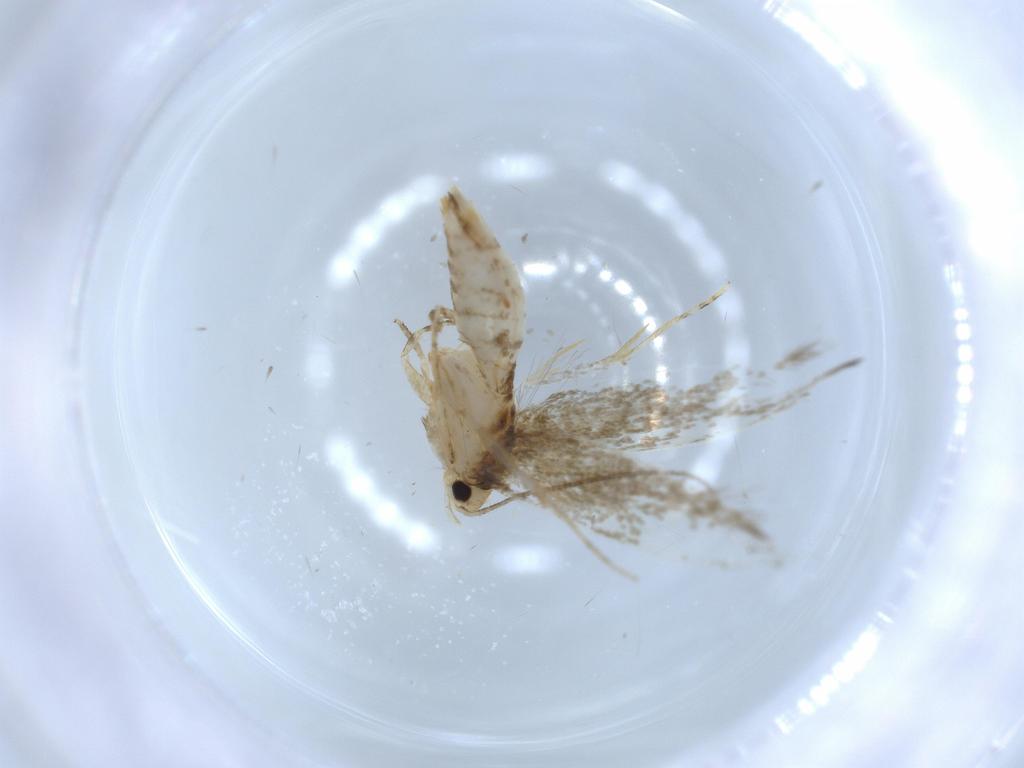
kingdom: Animalia
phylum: Arthropoda
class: Insecta
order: Lepidoptera
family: Tineidae
